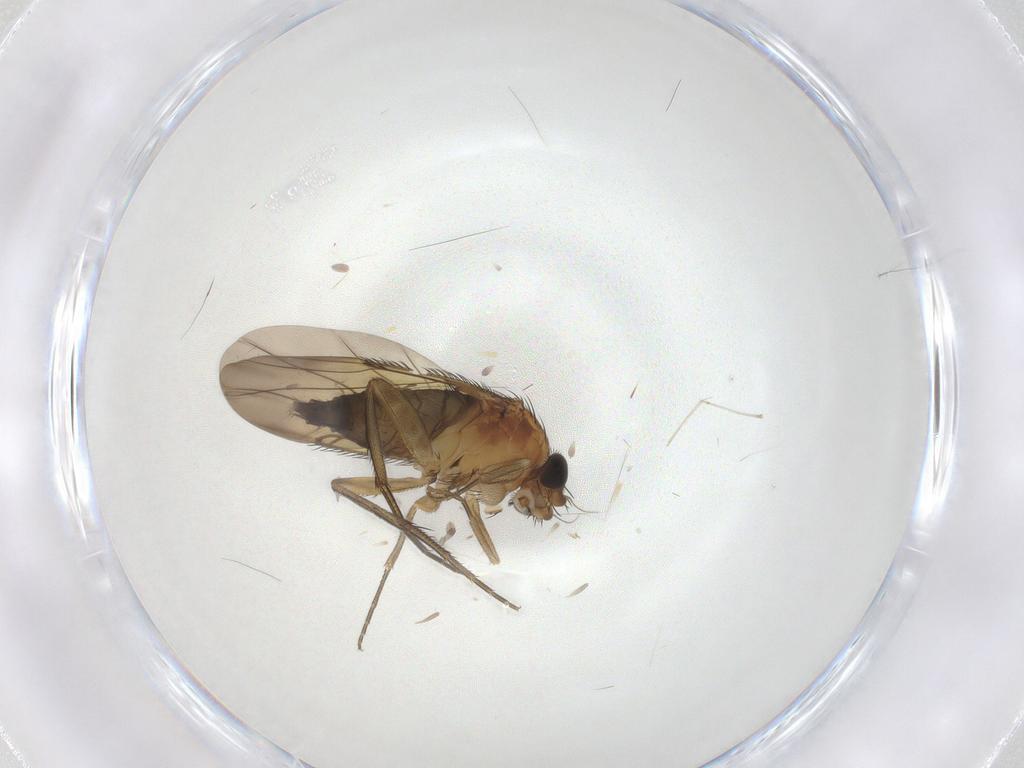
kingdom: Animalia
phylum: Arthropoda
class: Insecta
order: Diptera
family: Phoridae
